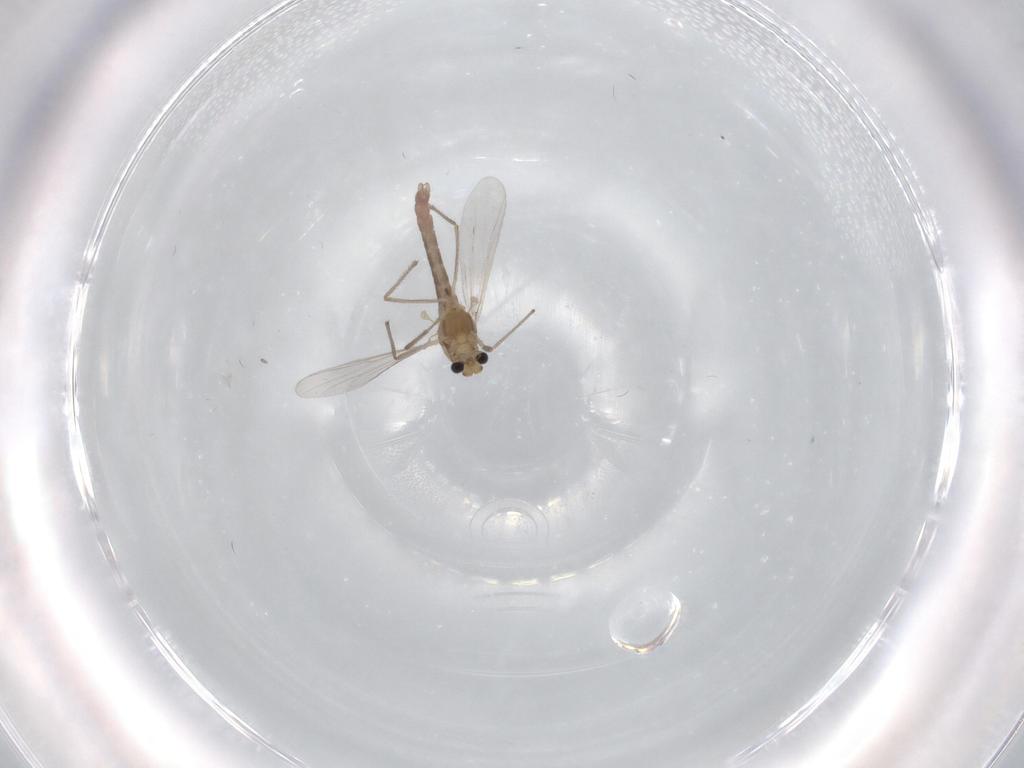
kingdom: Animalia
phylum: Arthropoda
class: Insecta
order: Diptera
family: Chironomidae
